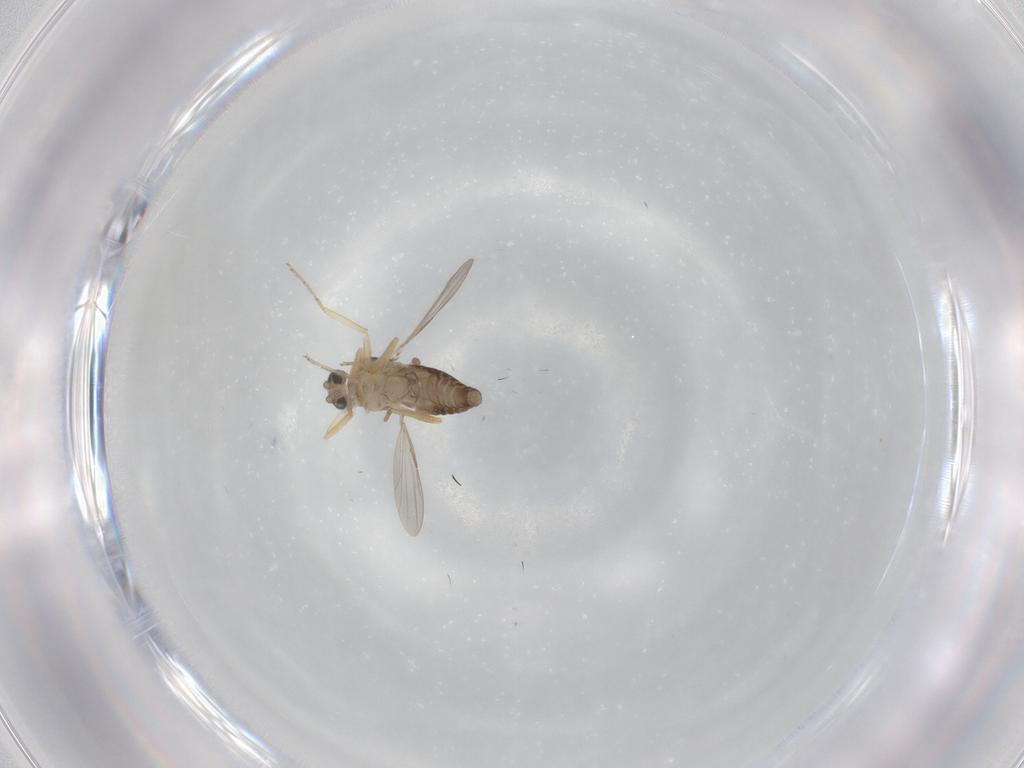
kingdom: Animalia
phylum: Arthropoda
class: Insecta
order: Diptera
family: Ceratopogonidae
